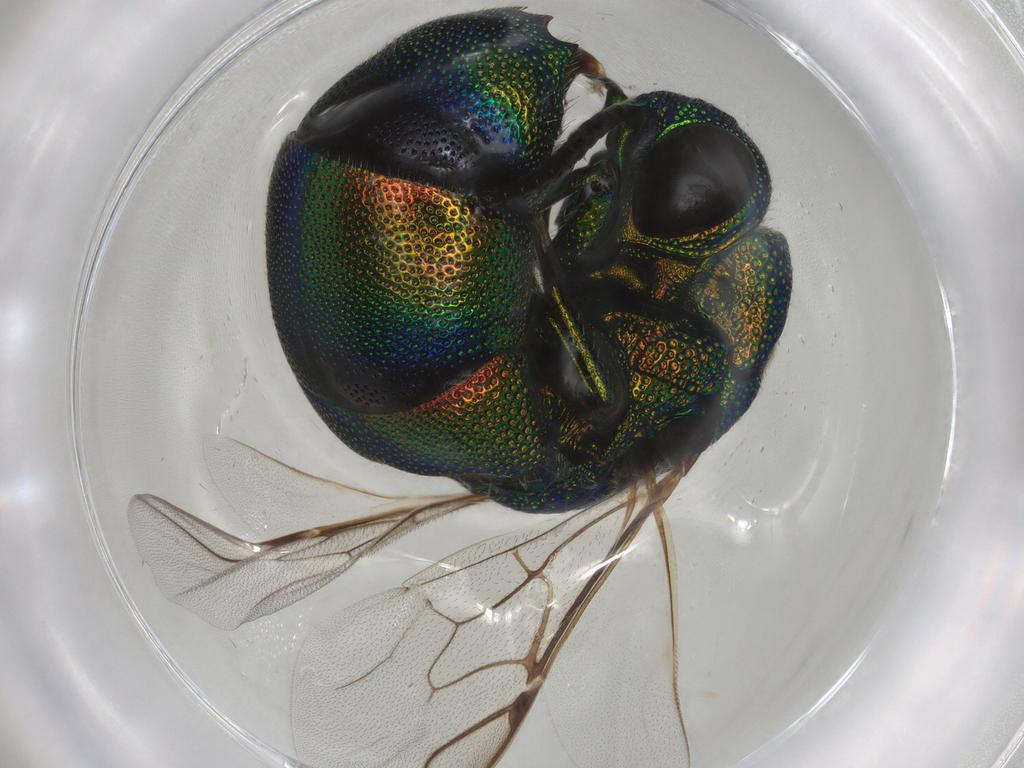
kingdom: Animalia
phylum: Arthropoda
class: Insecta
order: Hymenoptera
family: Chrysididae
